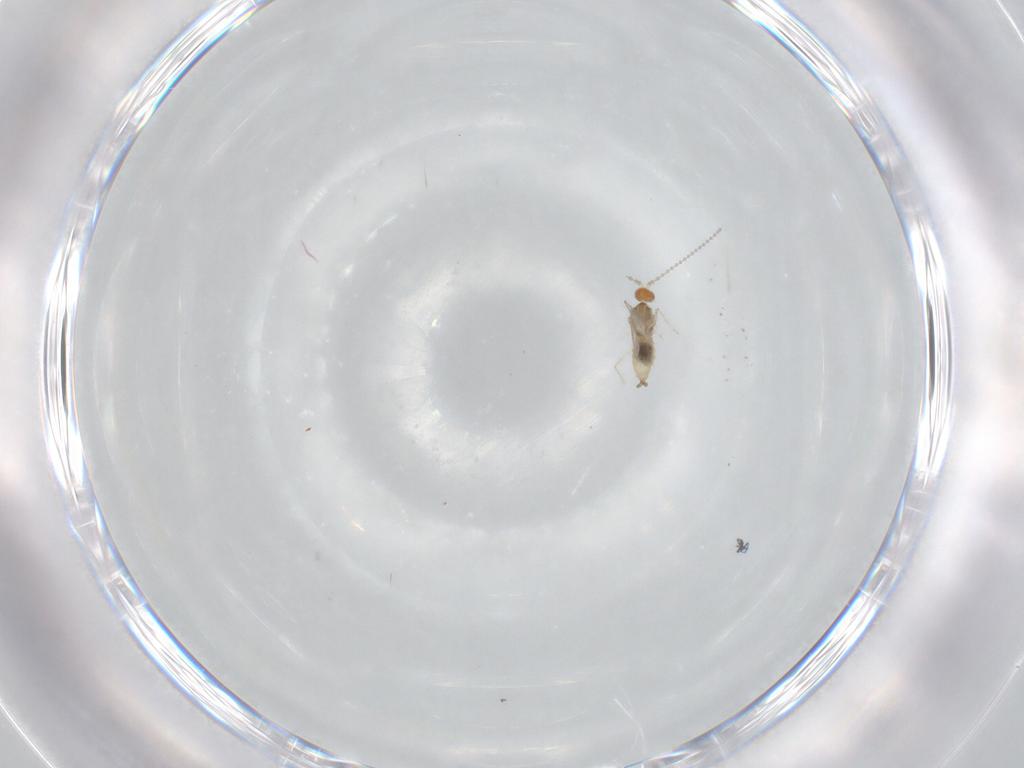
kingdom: Animalia
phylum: Arthropoda
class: Insecta
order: Diptera
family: Cecidomyiidae
